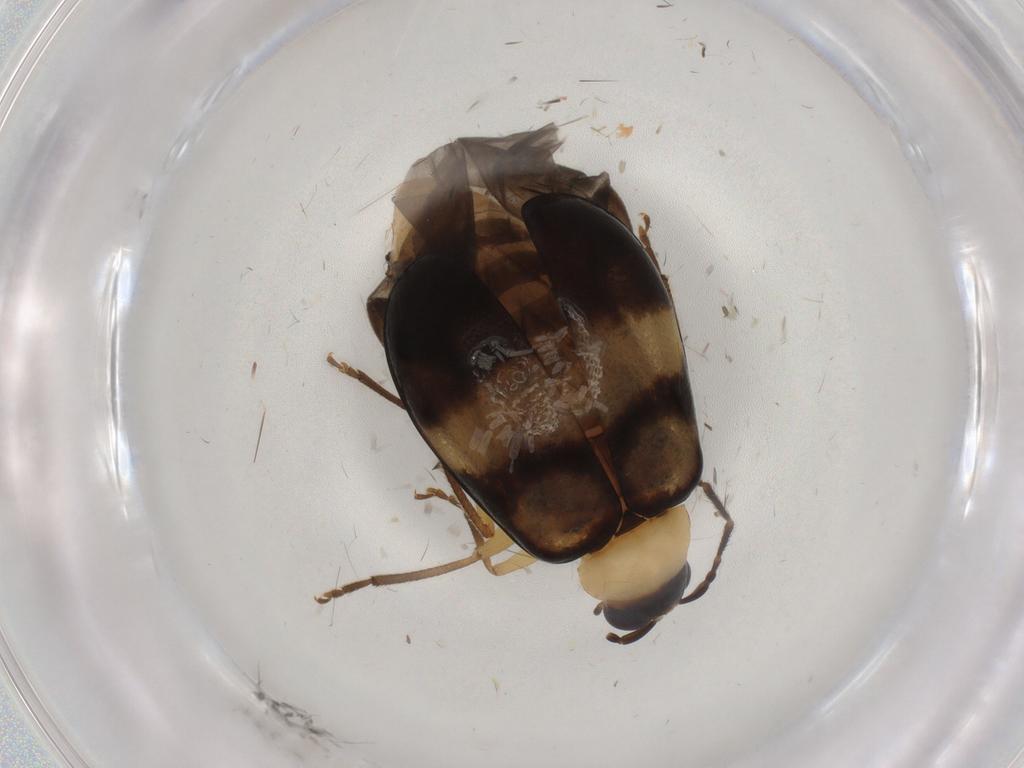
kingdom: Animalia
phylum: Arthropoda
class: Insecta
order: Coleoptera
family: Chrysomelidae
